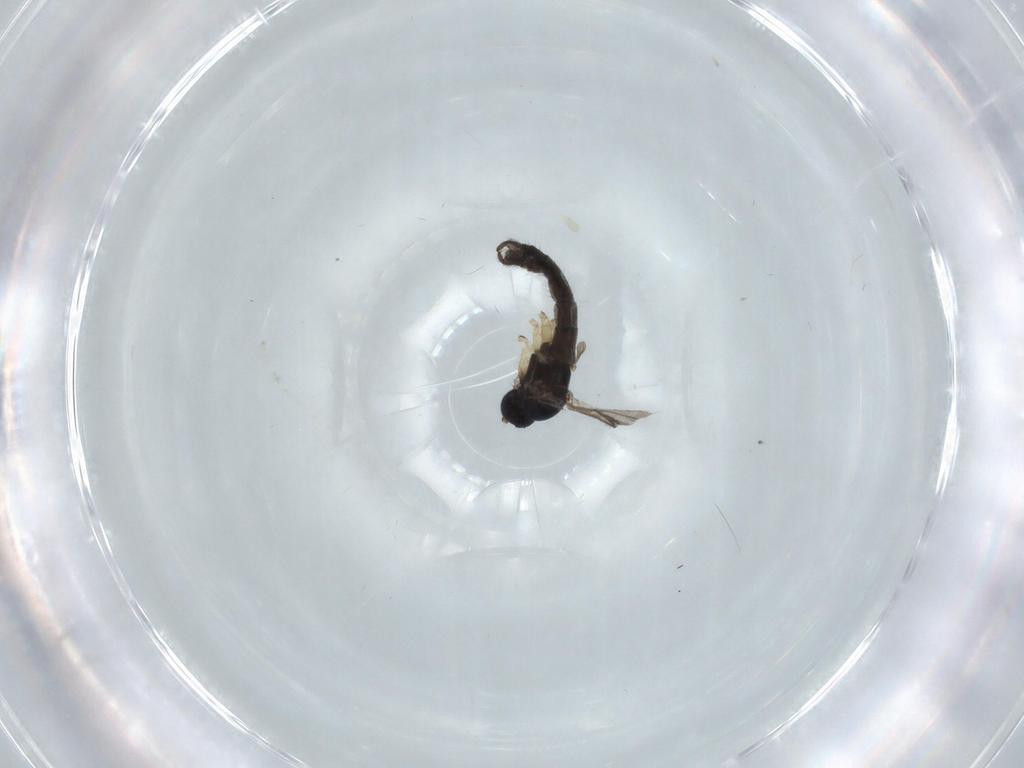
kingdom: Animalia
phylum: Arthropoda
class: Insecta
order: Diptera
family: Sciaridae
